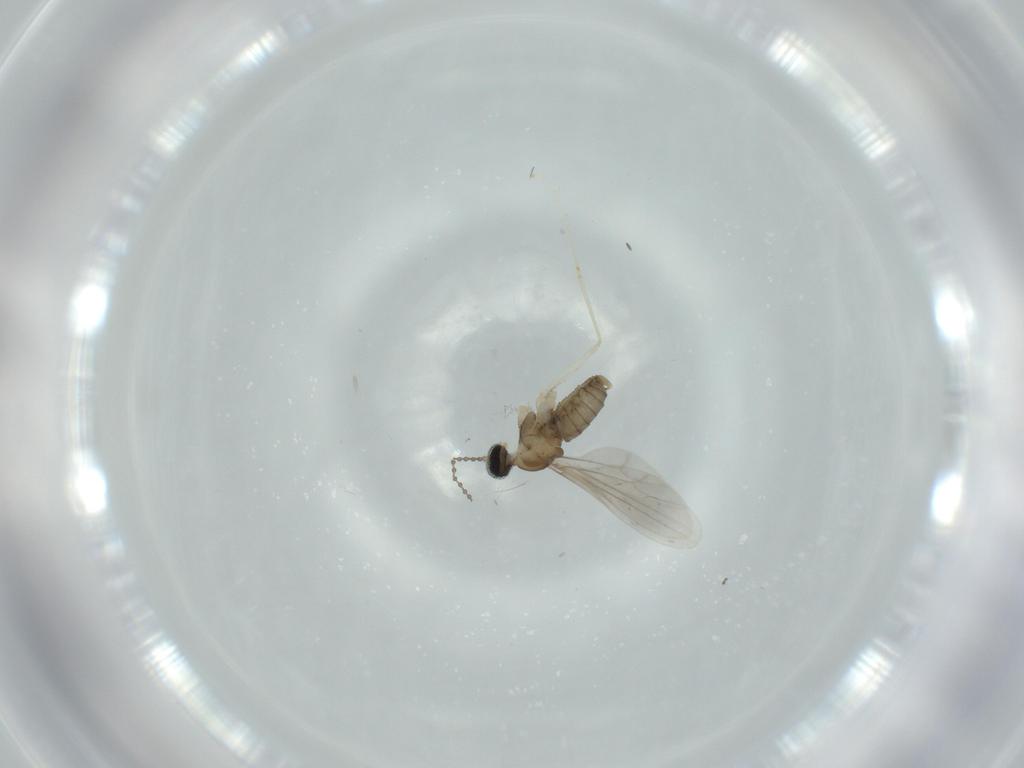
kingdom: Animalia
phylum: Arthropoda
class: Insecta
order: Diptera
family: Cecidomyiidae
